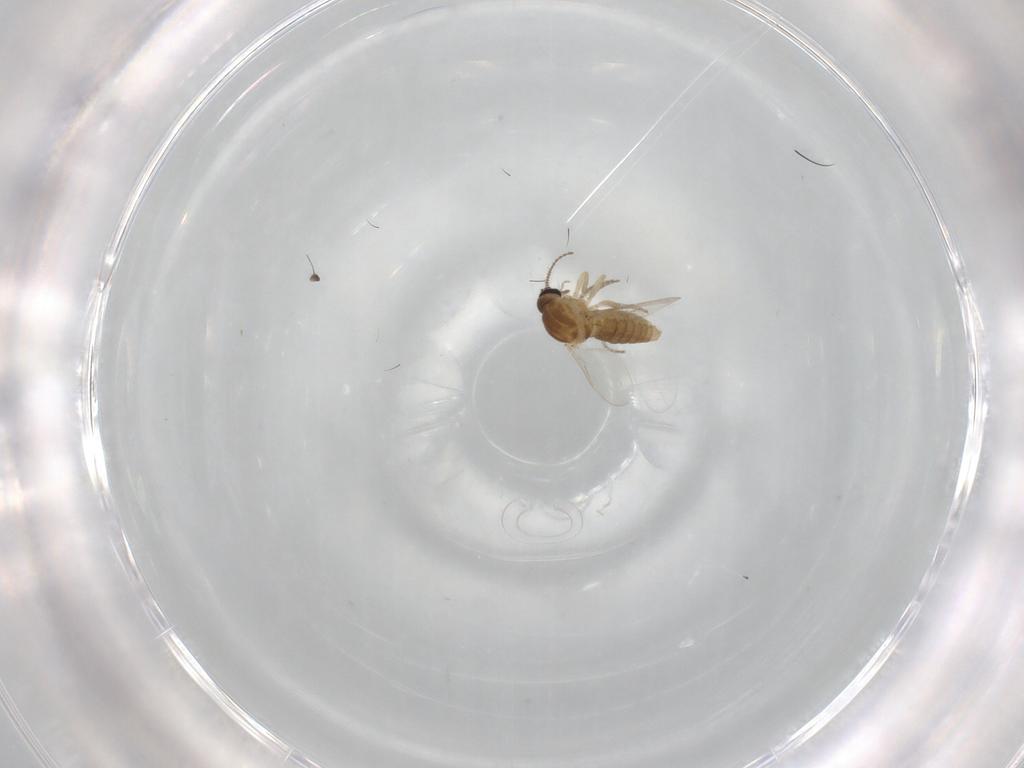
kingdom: Animalia
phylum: Arthropoda
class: Insecta
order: Diptera
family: Ceratopogonidae
